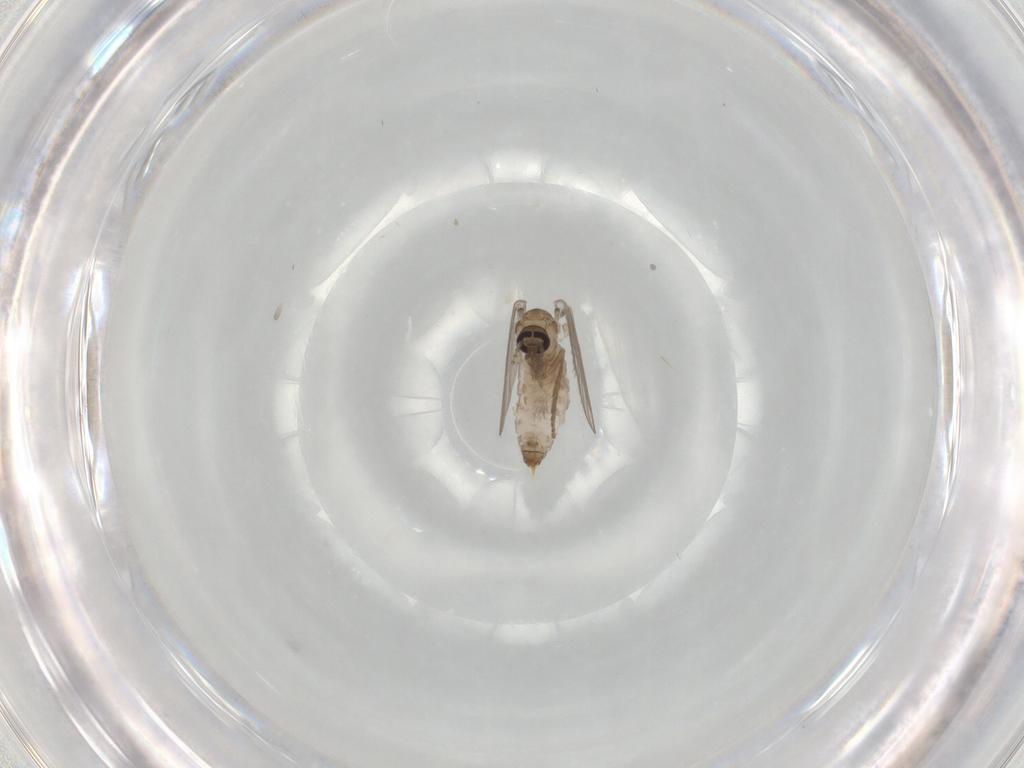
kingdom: Animalia
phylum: Arthropoda
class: Insecta
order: Diptera
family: Psychodidae
